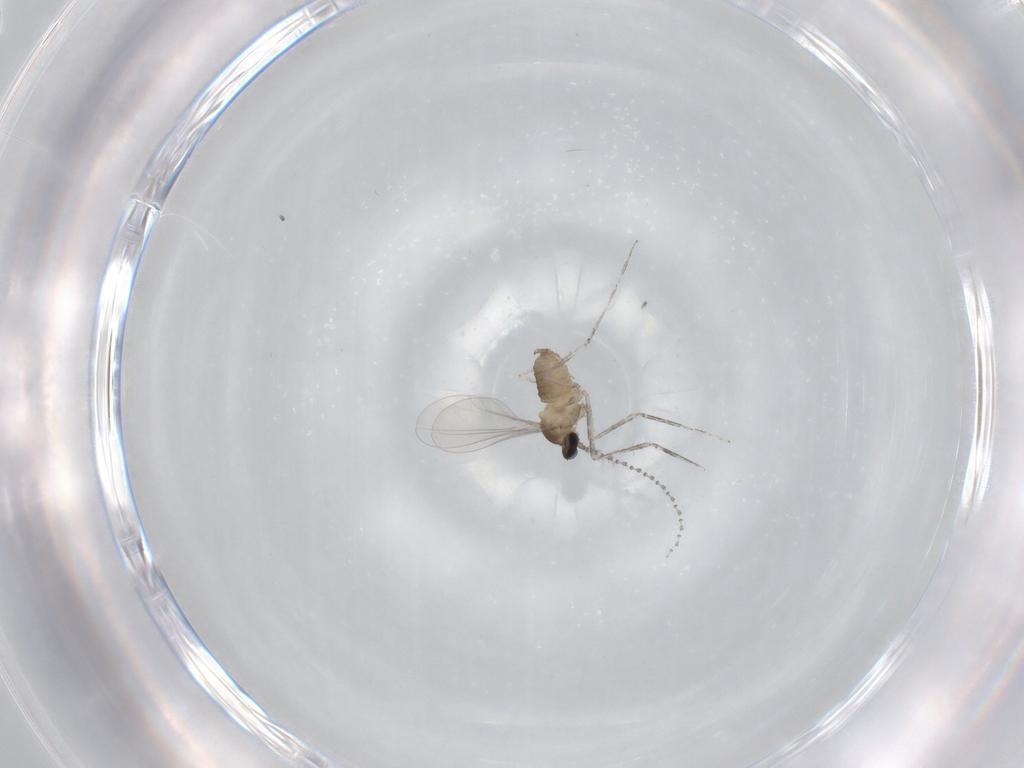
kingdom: Animalia
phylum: Arthropoda
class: Insecta
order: Diptera
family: Cecidomyiidae
